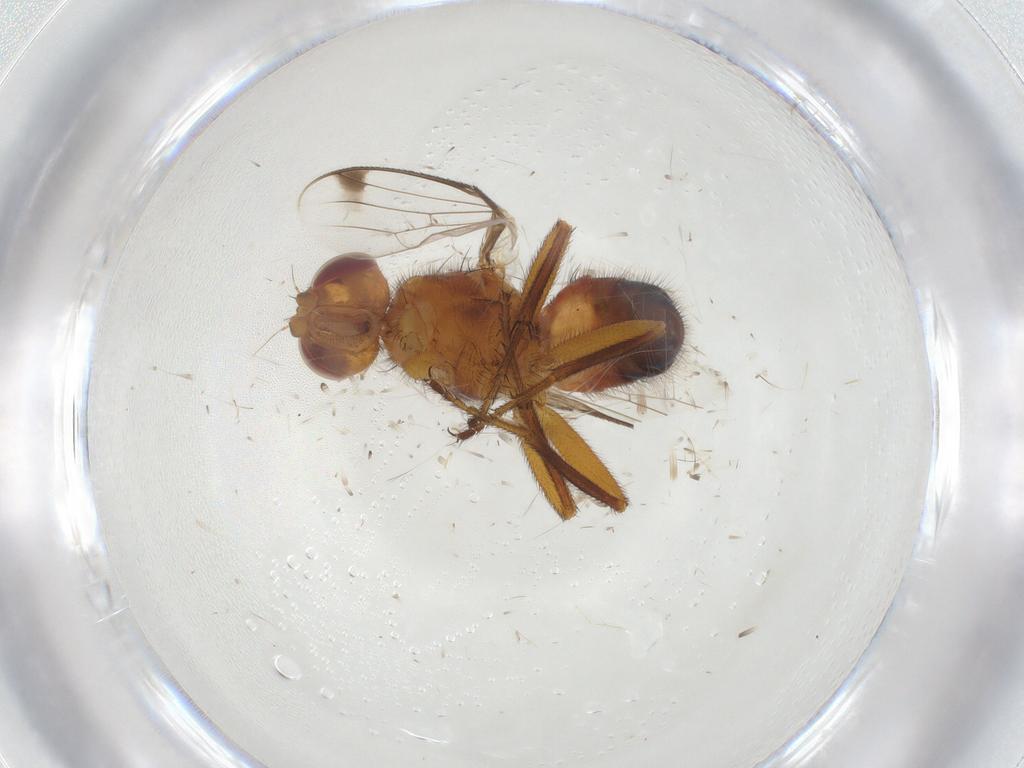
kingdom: Animalia
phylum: Arthropoda
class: Insecta
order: Diptera
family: Richardiidae
